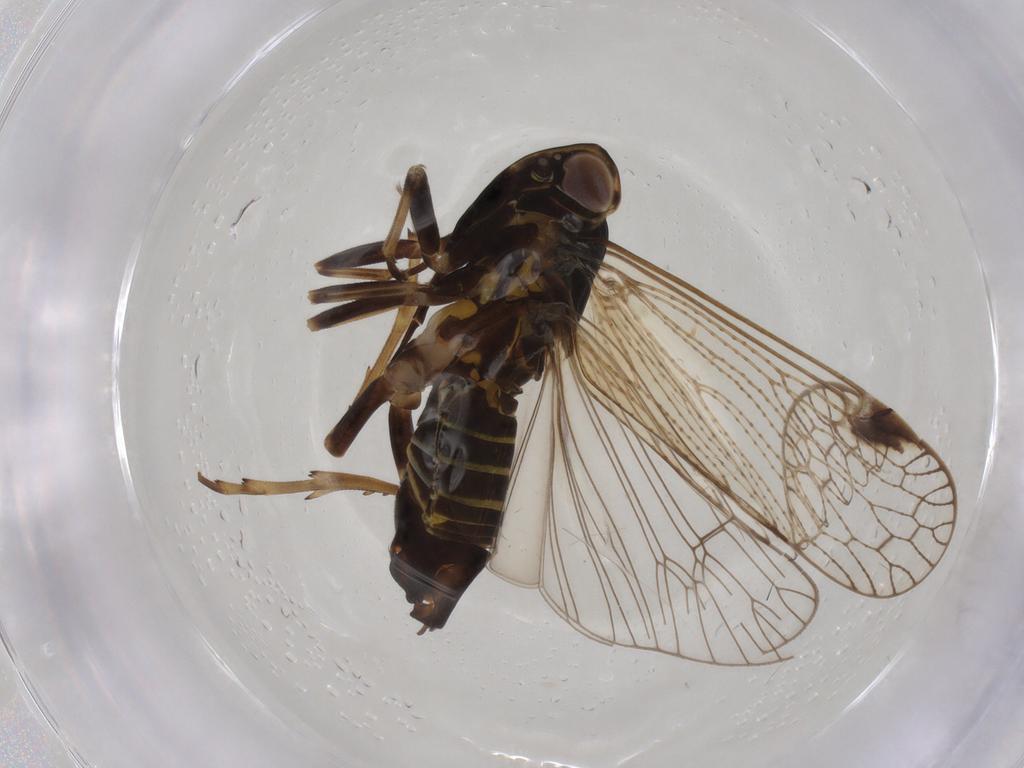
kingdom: Animalia
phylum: Arthropoda
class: Insecta
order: Hemiptera
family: Cixiidae
